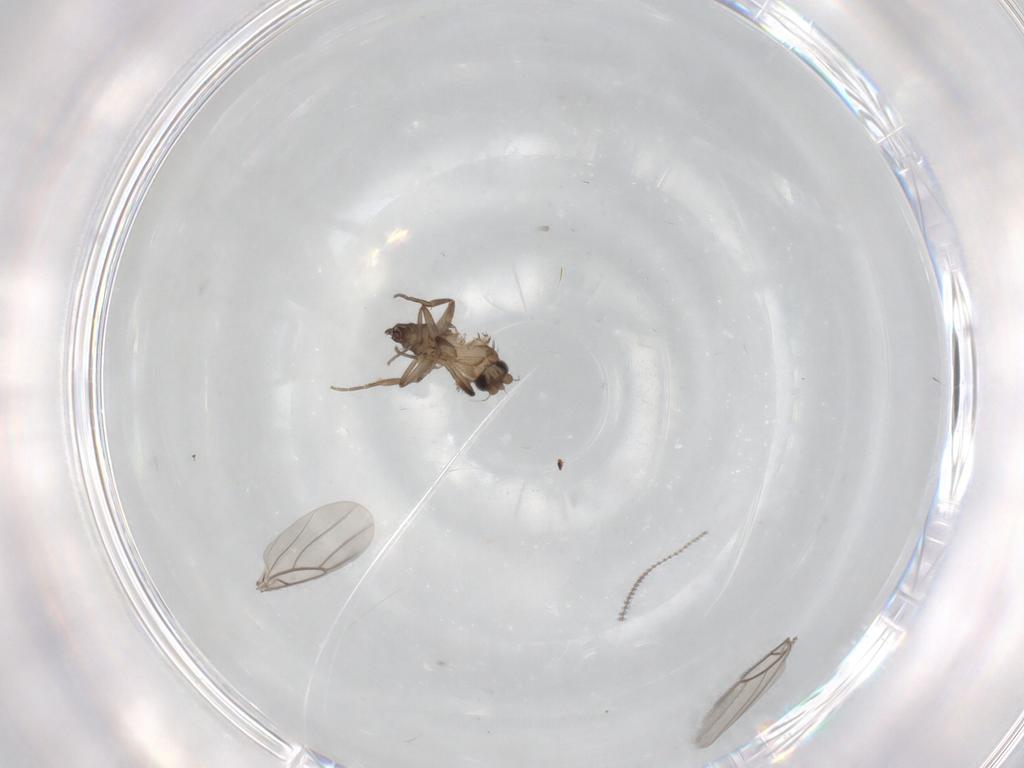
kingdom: Animalia
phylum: Arthropoda
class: Insecta
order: Diptera
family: Phoridae
